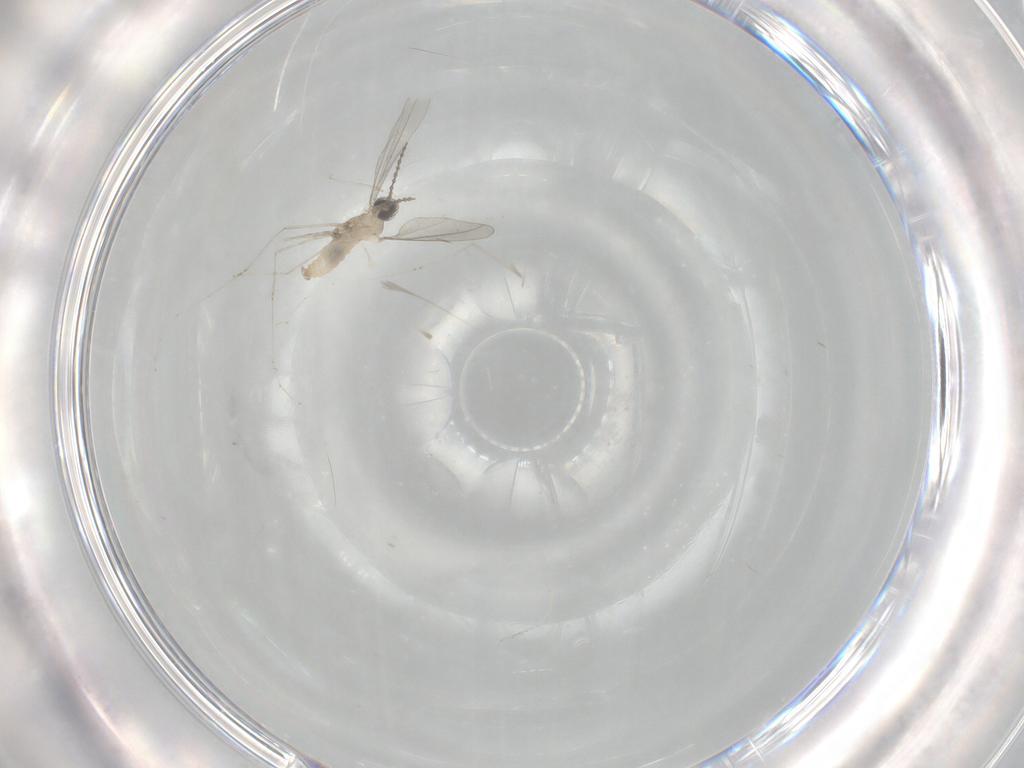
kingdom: Animalia
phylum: Arthropoda
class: Insecta
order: Diptera
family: Cecidomyiidae
